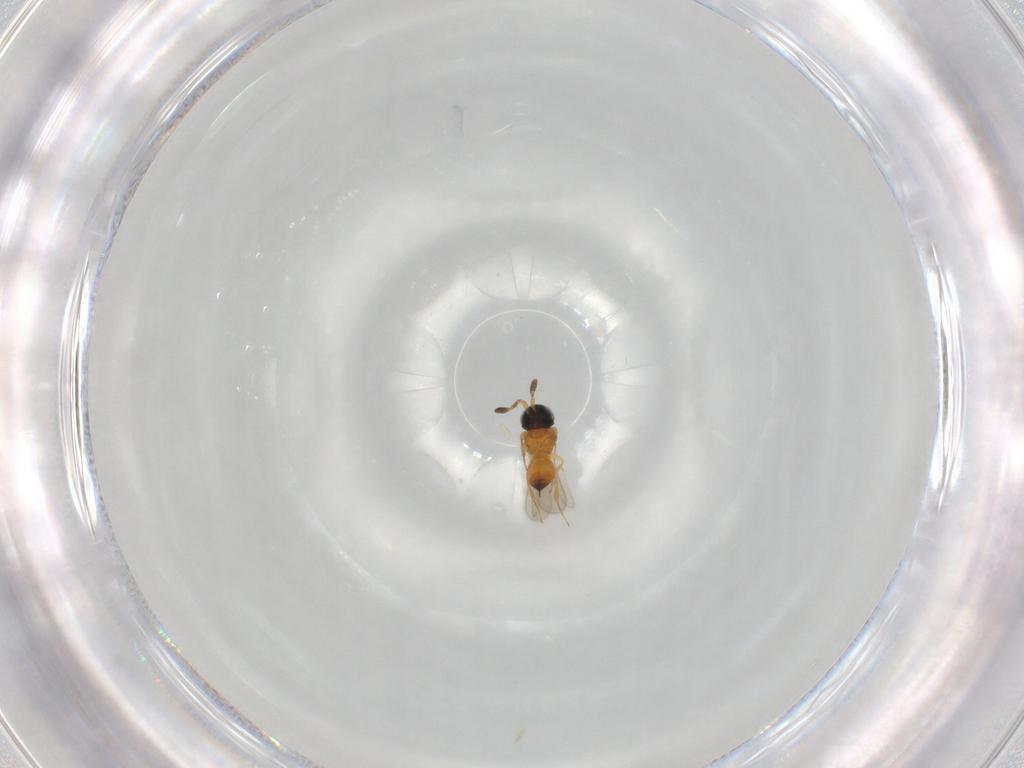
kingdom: Animalia
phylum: Arthropoda
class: Insecta
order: Hymenoptera
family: Scelionidae
